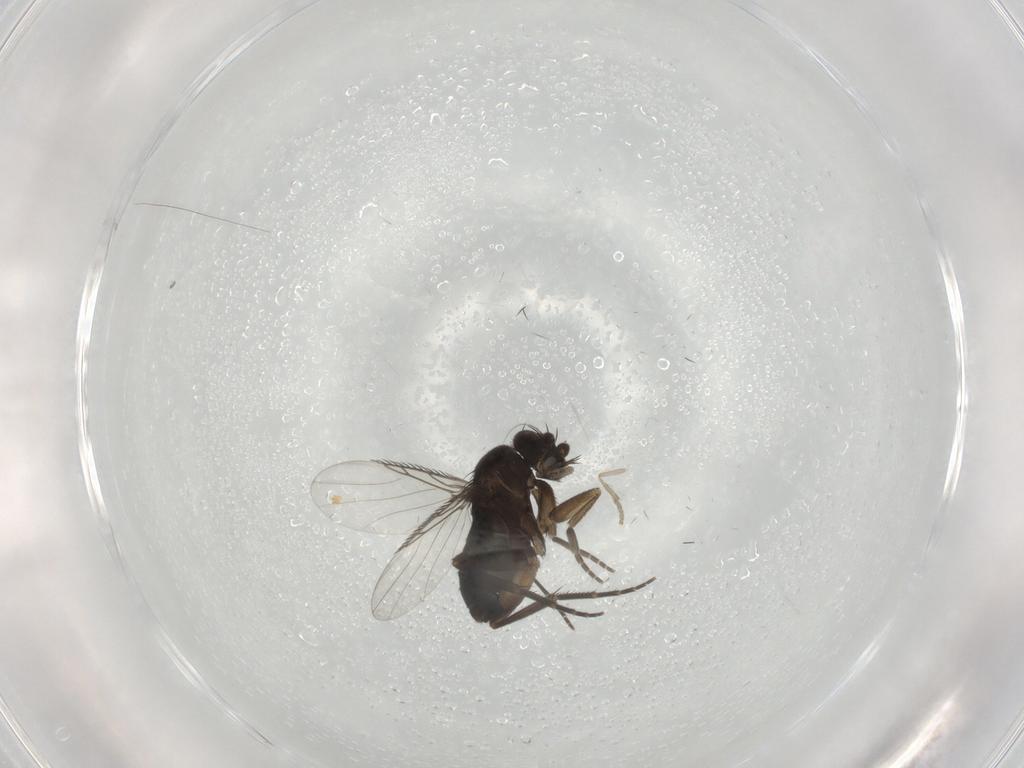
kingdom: Animalia
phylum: Arthropoda
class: Insecta
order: Diptera
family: Phoridae
